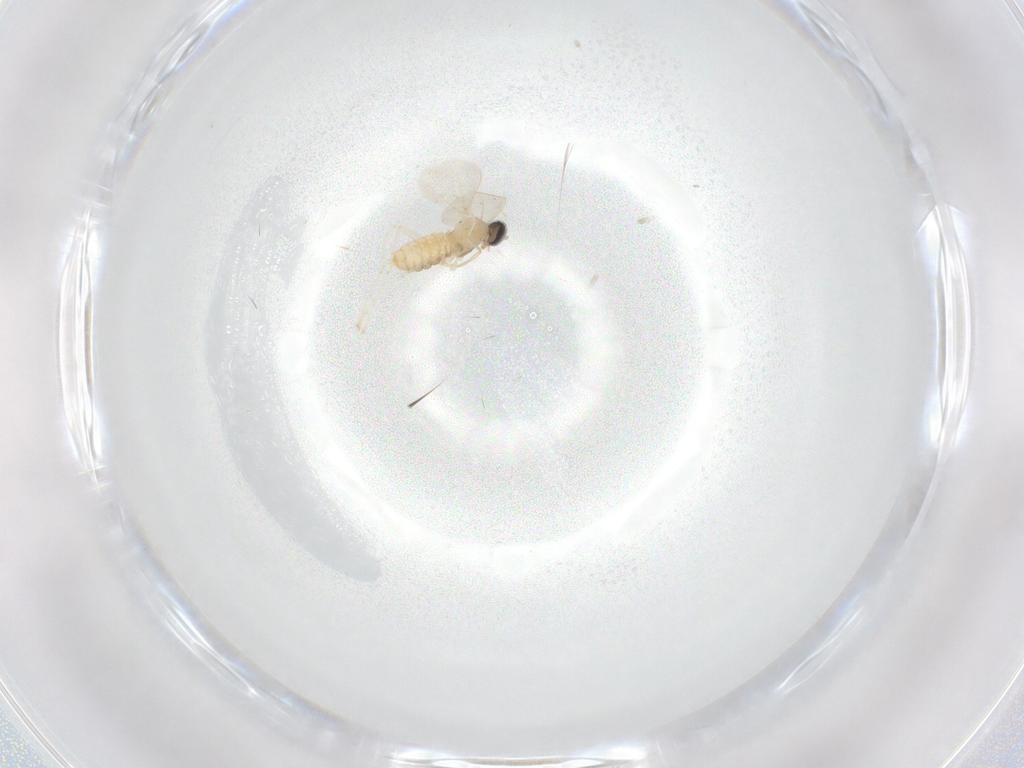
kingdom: Animalia
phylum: Arthropoda
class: Insecta
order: Diptera
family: Cecidomyiidae
